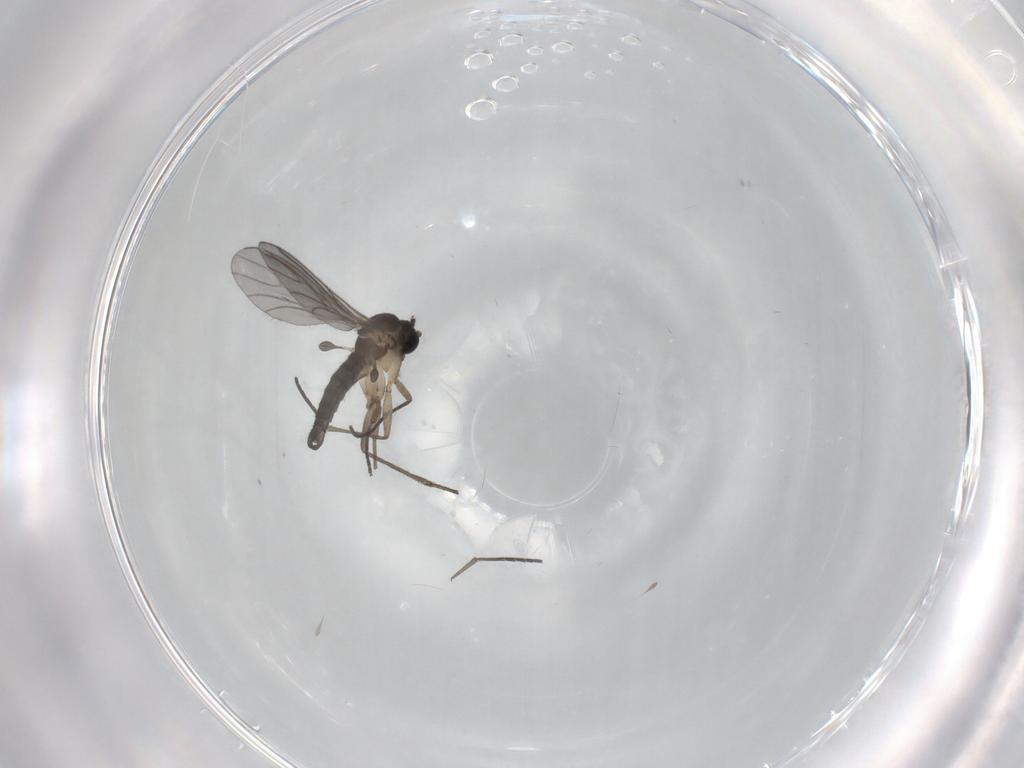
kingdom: Animalia
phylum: Arthropoda
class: Insecta
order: Diptera
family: Sciaridae
